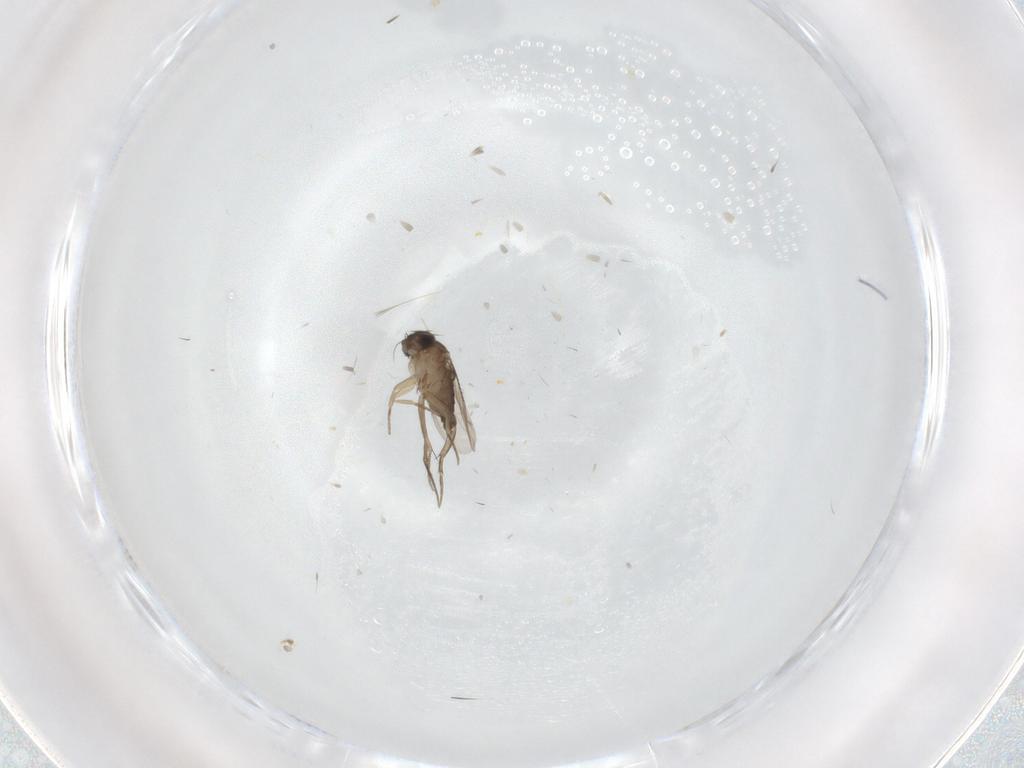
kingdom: Animalia
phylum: Arthropoda
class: Insecta
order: Diptera
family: Phoridae
